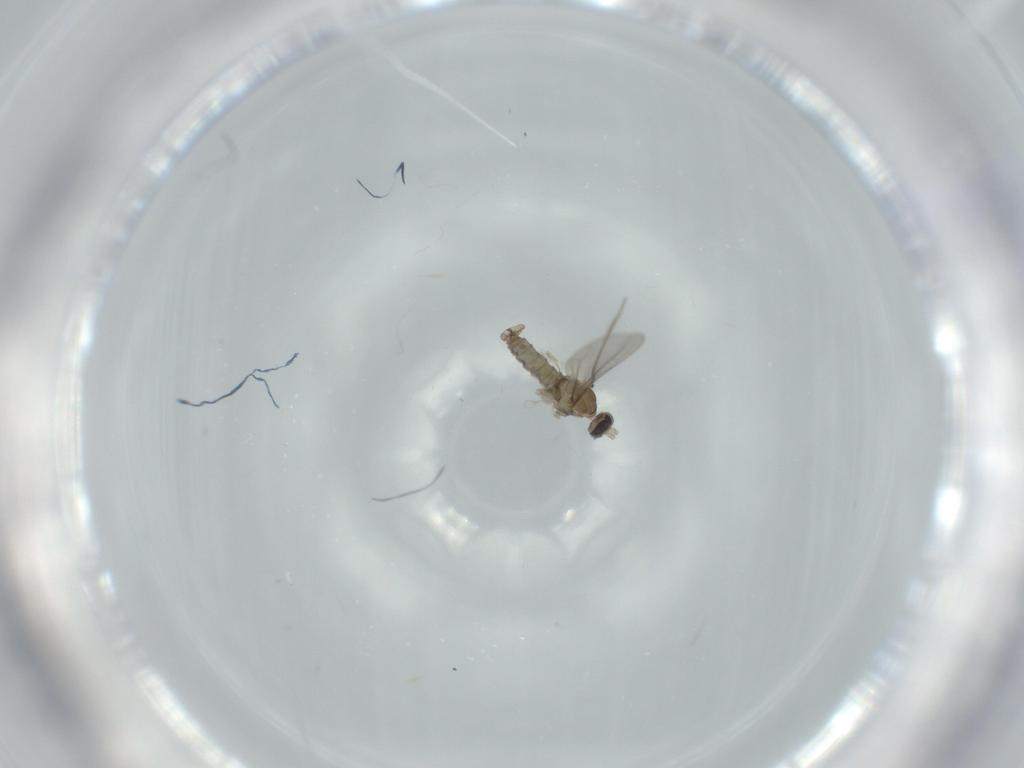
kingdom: Animalia
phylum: Arthropoda
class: Insecta
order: Diptera
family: Cecidomyiidae
